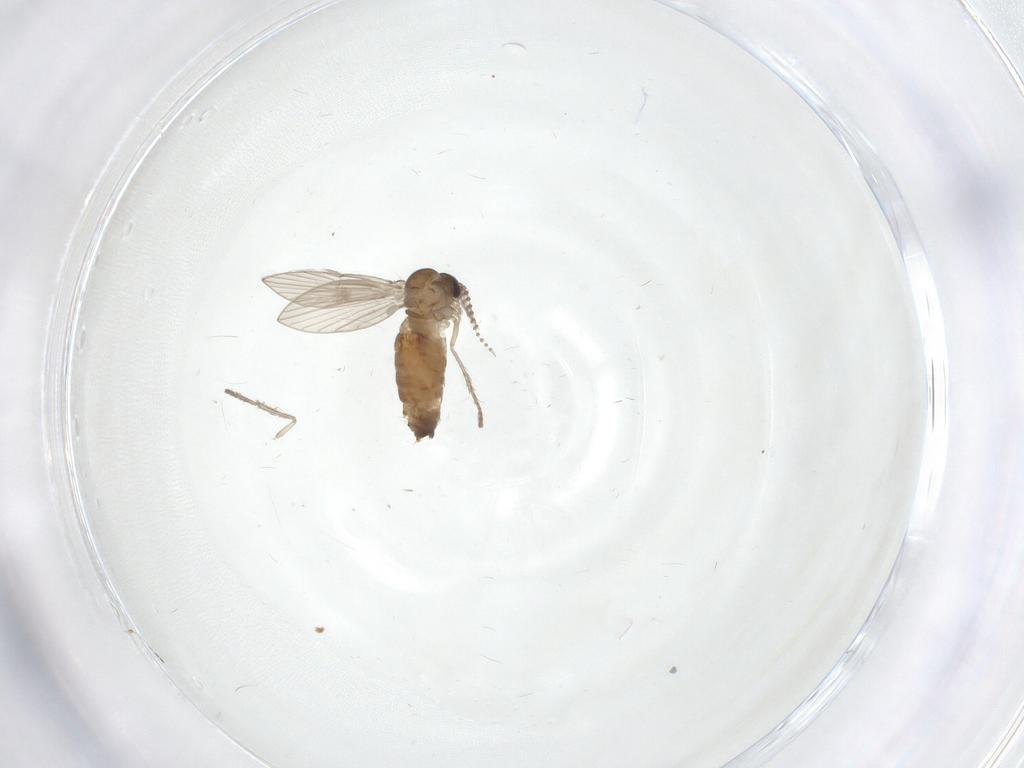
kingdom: Animalia
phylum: Arthropoda
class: Insecta
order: Diptera
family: Psychodidae
